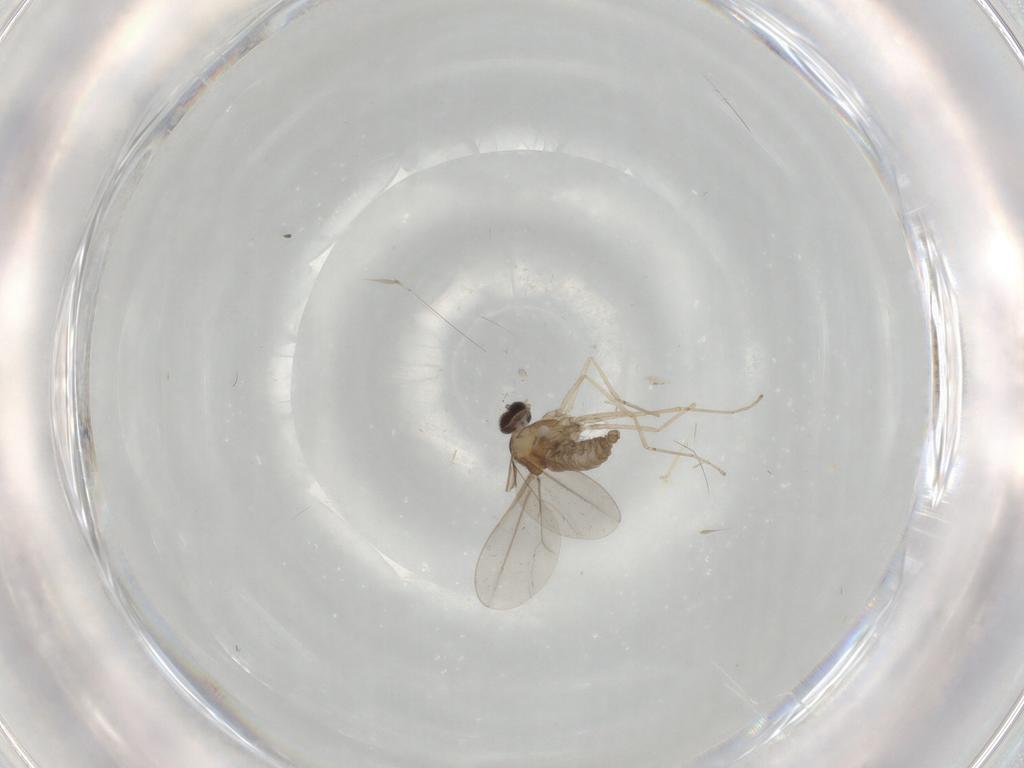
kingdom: Animalia
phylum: Arthropoda
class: Insecta
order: Diptera
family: Cecidomyiidae
